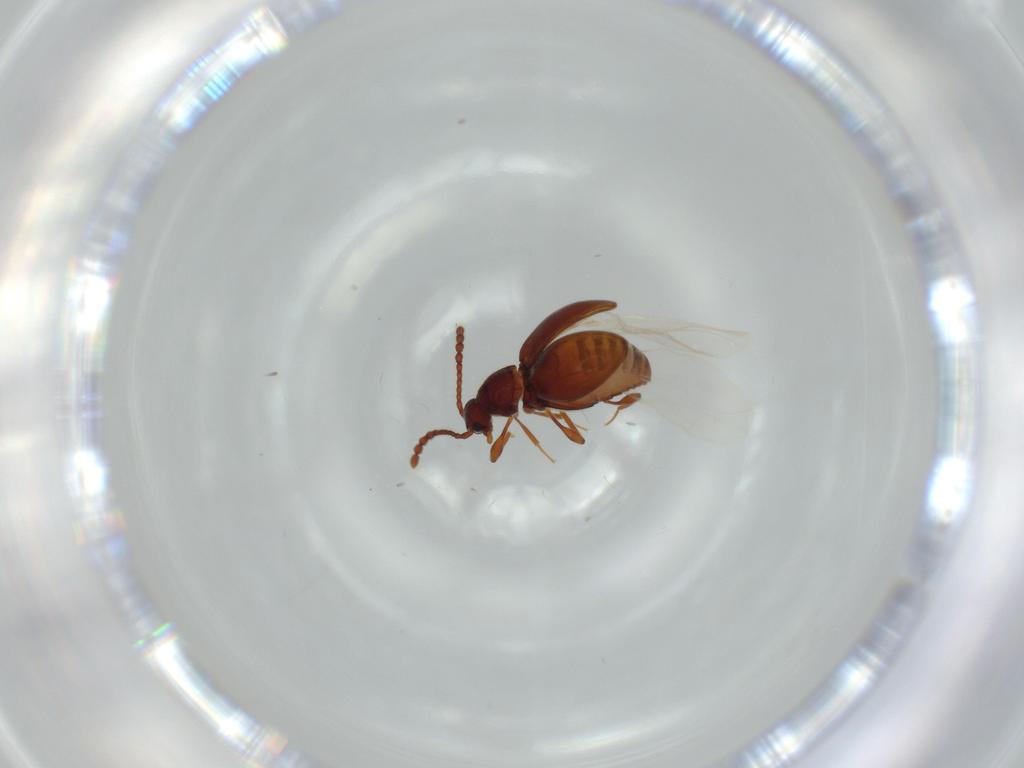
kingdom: Animalia
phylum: Arthropoda
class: Insecta
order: Coleoptera
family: Staphylinidae
